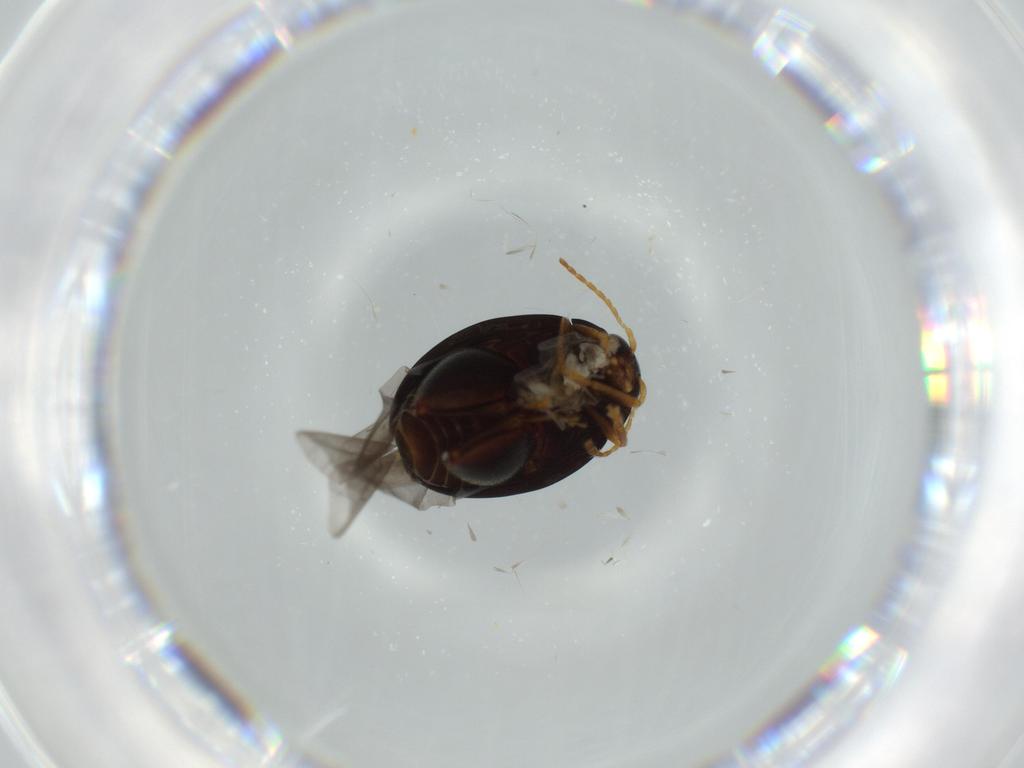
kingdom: Animalia
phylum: Arthropoda
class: Insecta
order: Coleoptera
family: Chrysomelidae
